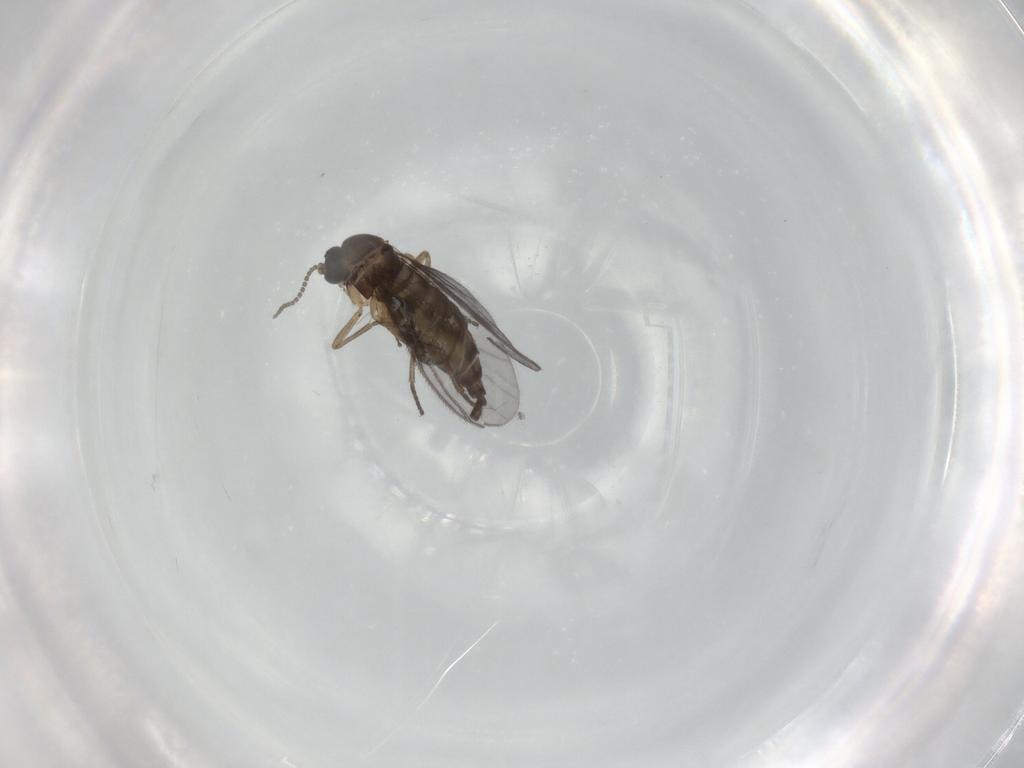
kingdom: Animalia
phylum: Arthropoda
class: Insecta
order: Diptera
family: Sciaridae
